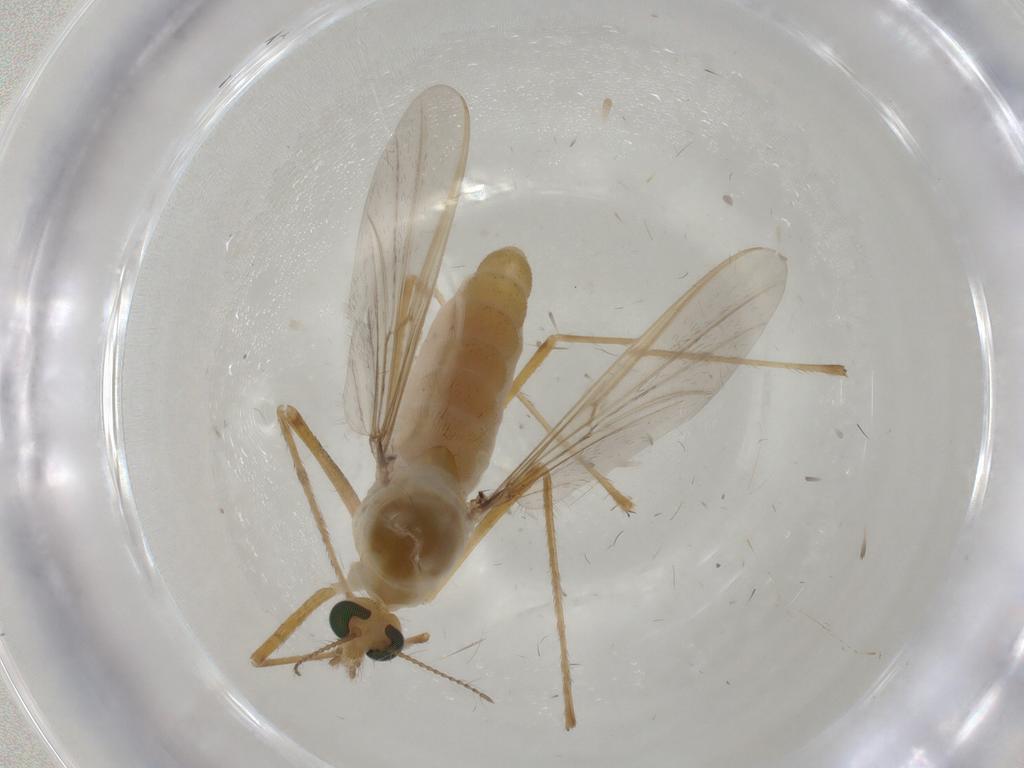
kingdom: Animalia
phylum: Arthropoda
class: Insecta
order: Diptera
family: Chironomidae
